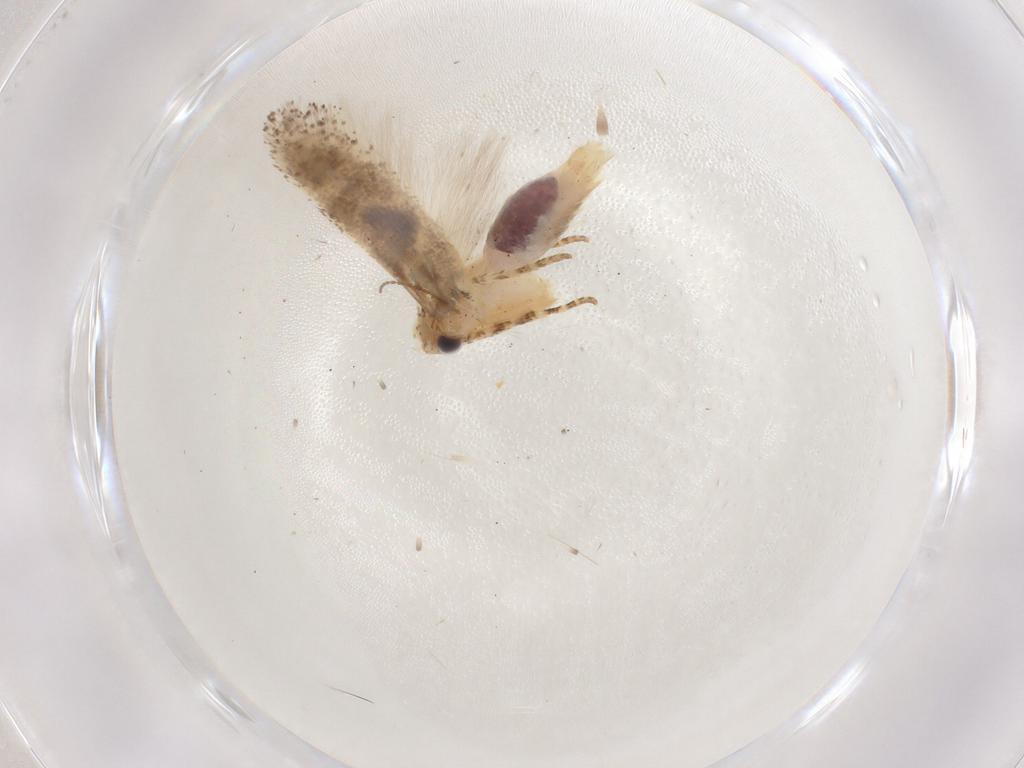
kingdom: Animalia
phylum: Arthropoda
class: Insecta
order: Lepidoptera
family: Gelechiidae
